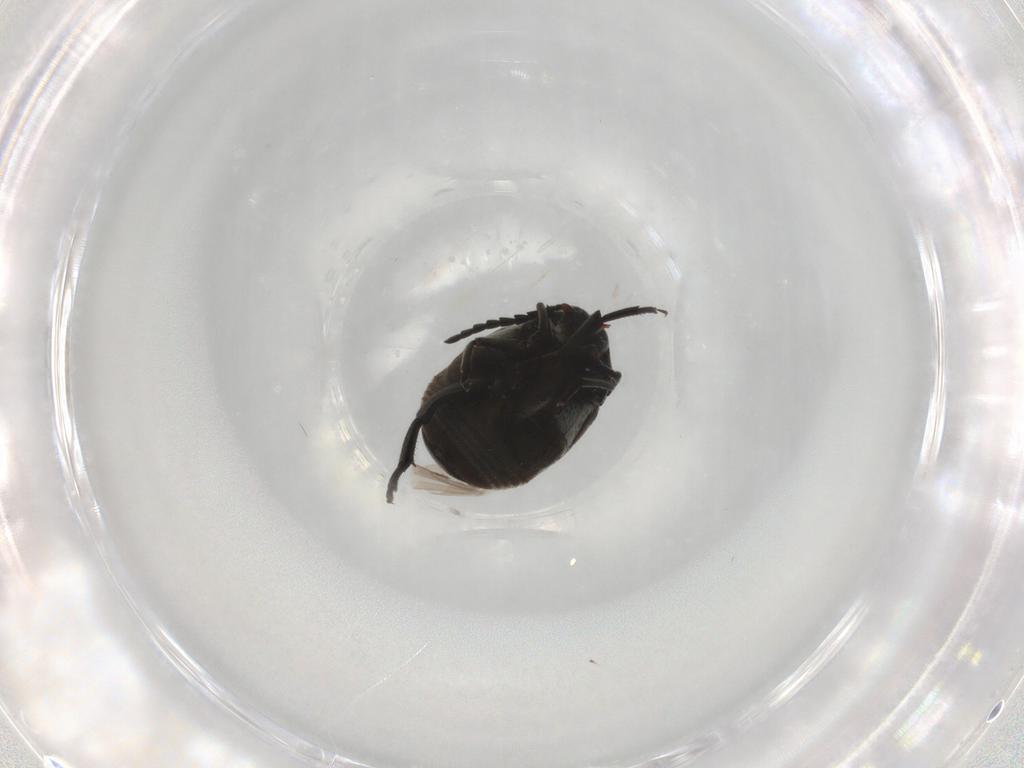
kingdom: Animalia
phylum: Arthropoda
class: Insecta
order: Coleoptera
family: Chrysomelidae
